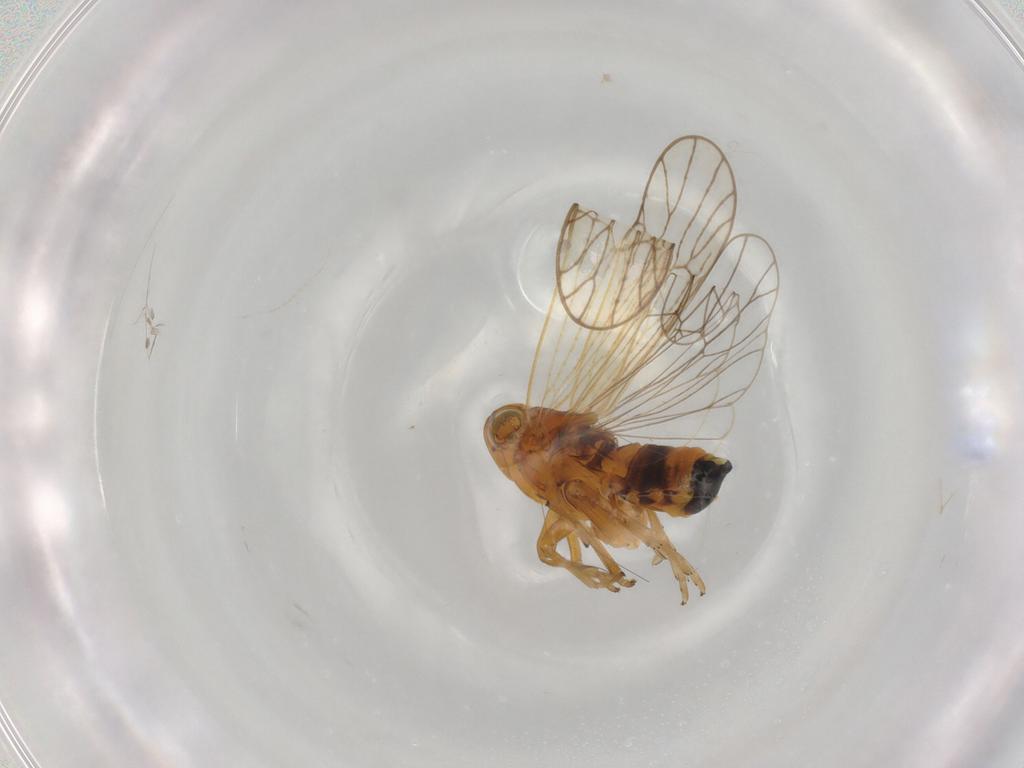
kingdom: Animalia
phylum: Arthropoda
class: Insecta
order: Hemiptera
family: Delphacidae
